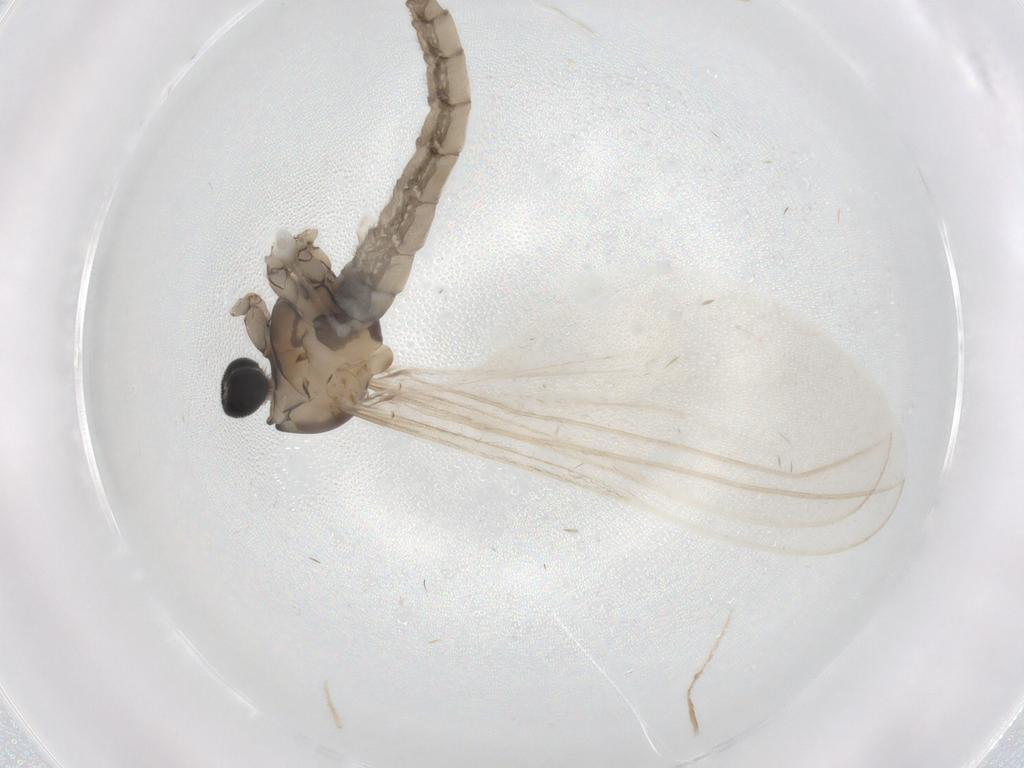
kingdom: Animalia
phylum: Arthropoda
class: Insecta
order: Diptera
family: Cecidomyiidae
